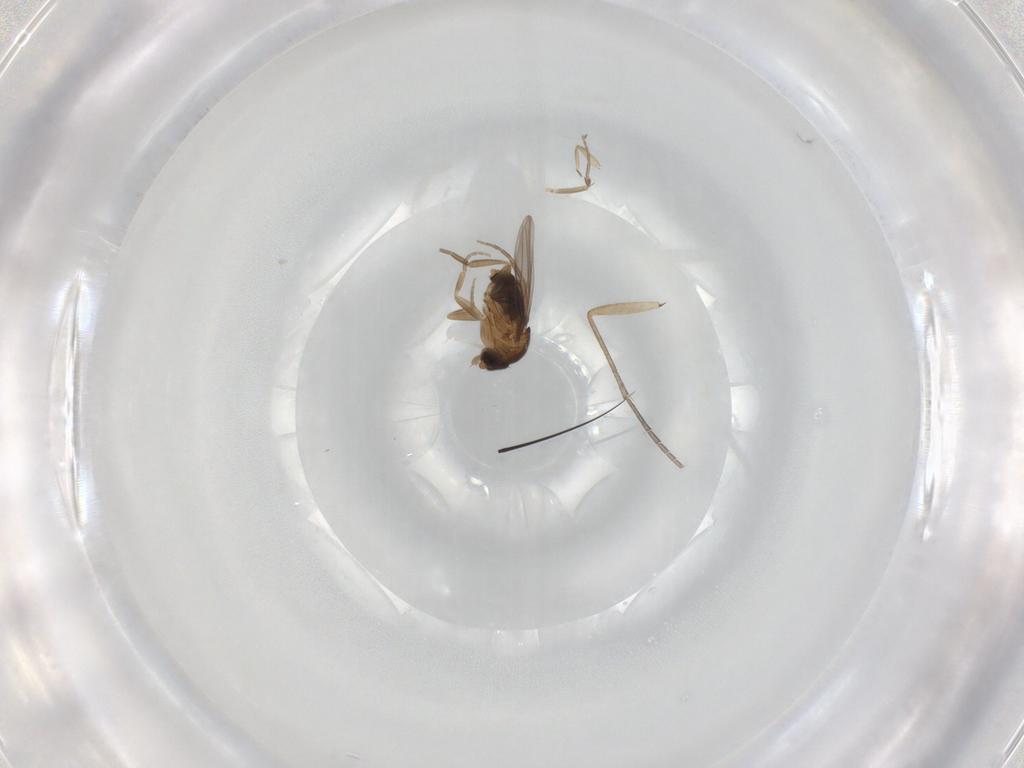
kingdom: Animalia
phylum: Arthropoda
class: Insecta
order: Diptera
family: Phoridae
